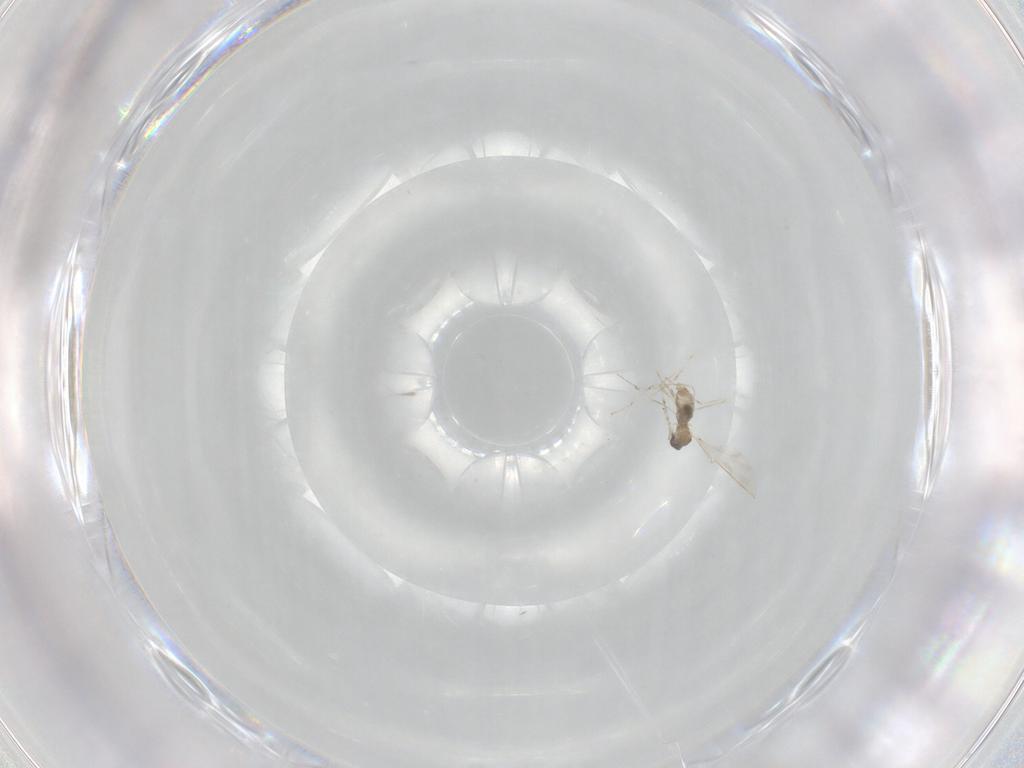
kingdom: Animalia
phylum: Arthropoda
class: Insecta
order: Diptera
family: Cecidomyiidae
